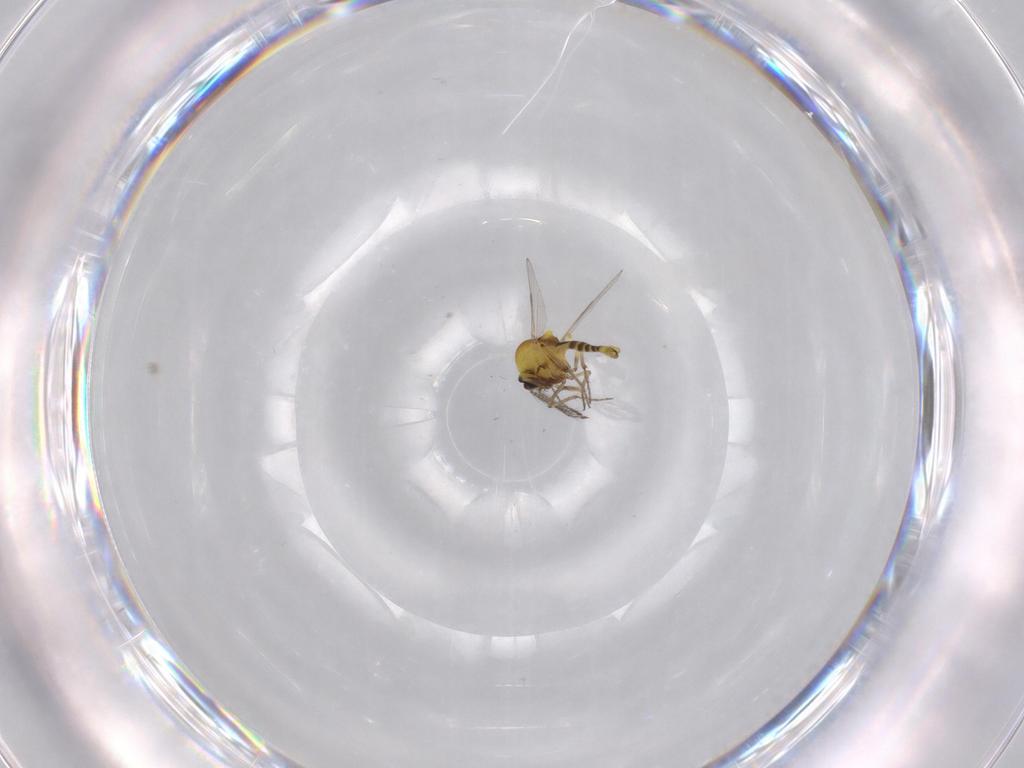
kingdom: Animalia
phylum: Arthropoda
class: Insecta
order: Diptera
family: Ceratopogonidae
